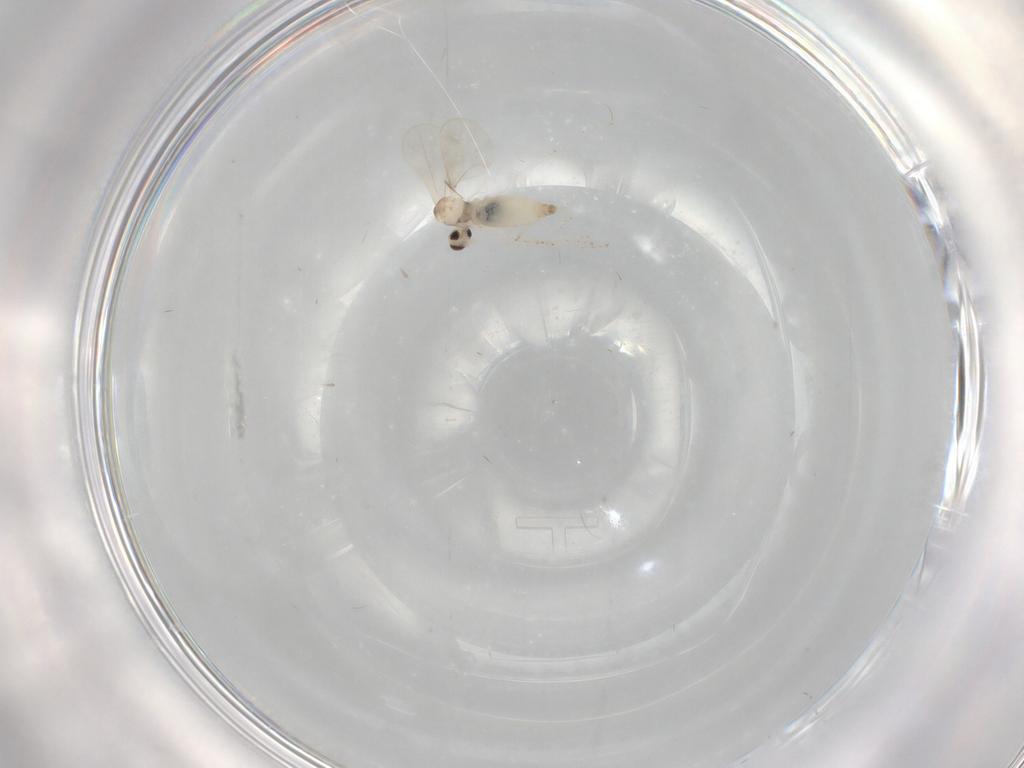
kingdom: Animalia
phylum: Arthropoda
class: Insecta
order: Diptera
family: Cecidomyiidae
